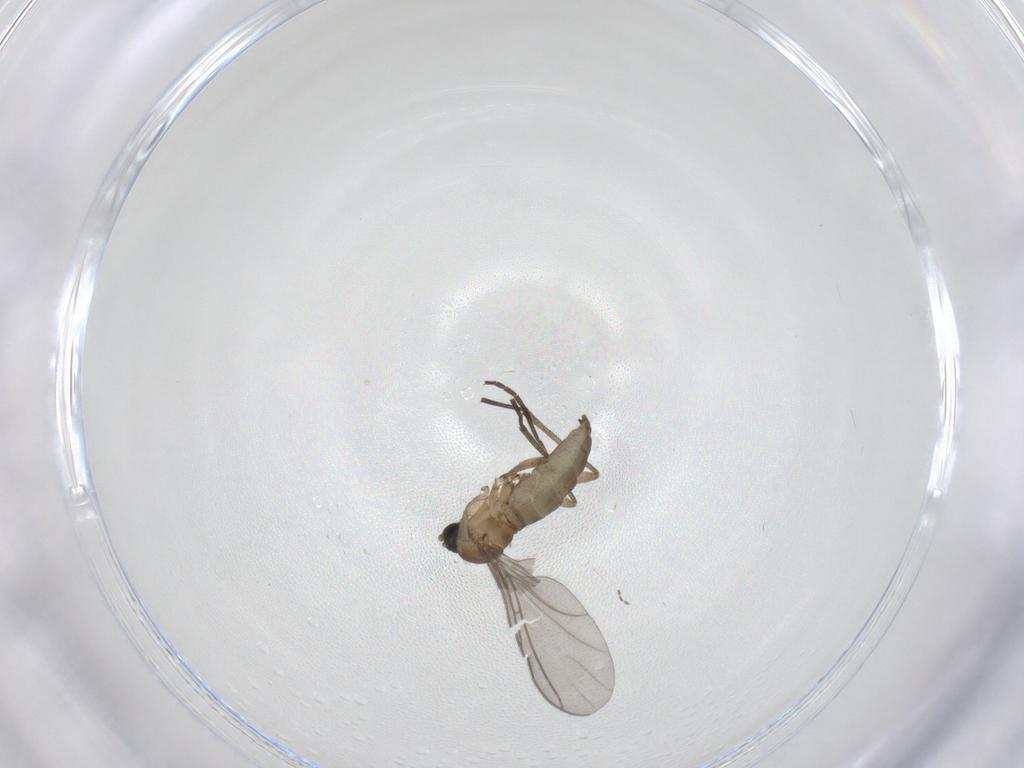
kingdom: Animalia
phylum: Arthropoda
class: Insecta
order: Diptera
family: Sciaridae
